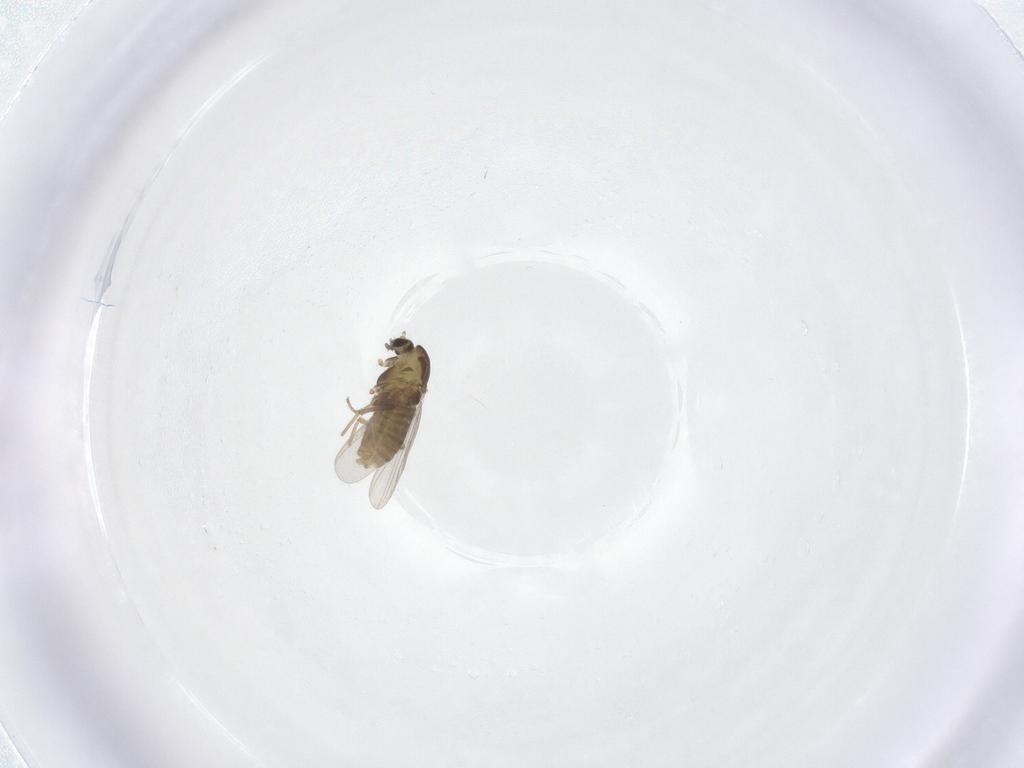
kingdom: Animalia
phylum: Arthropoda
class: Insecta
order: Diptera
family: Chironomidae
